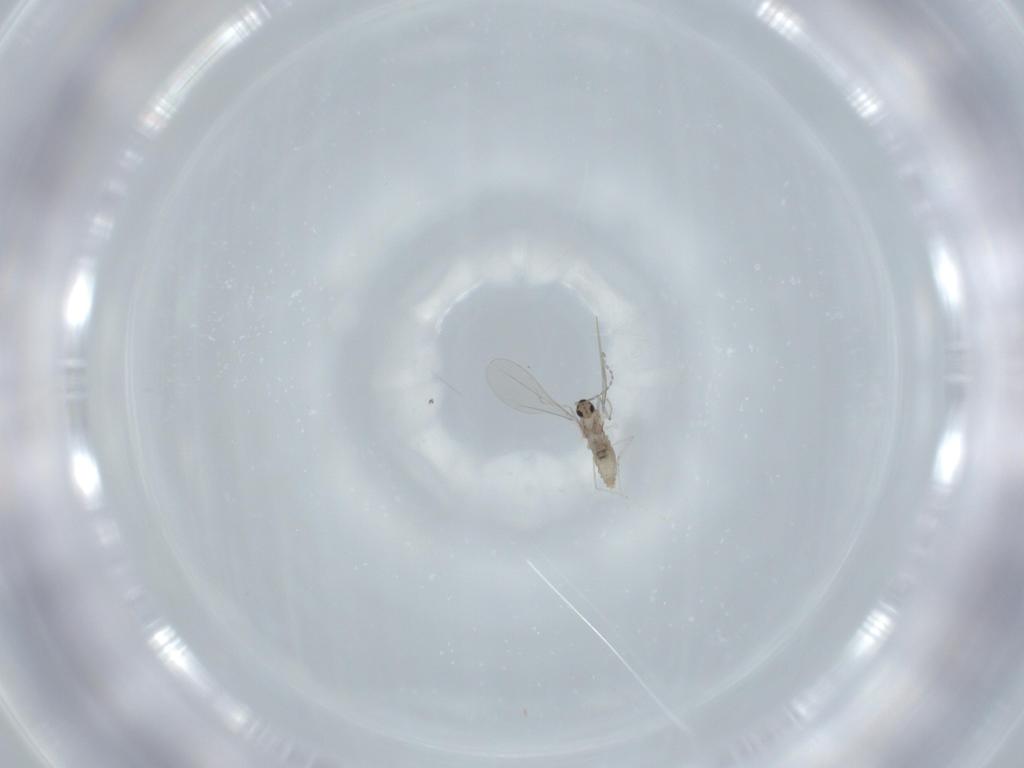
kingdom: Animalia
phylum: Arthropoda
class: Insecta
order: Diptera
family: Cecidomyiidae
